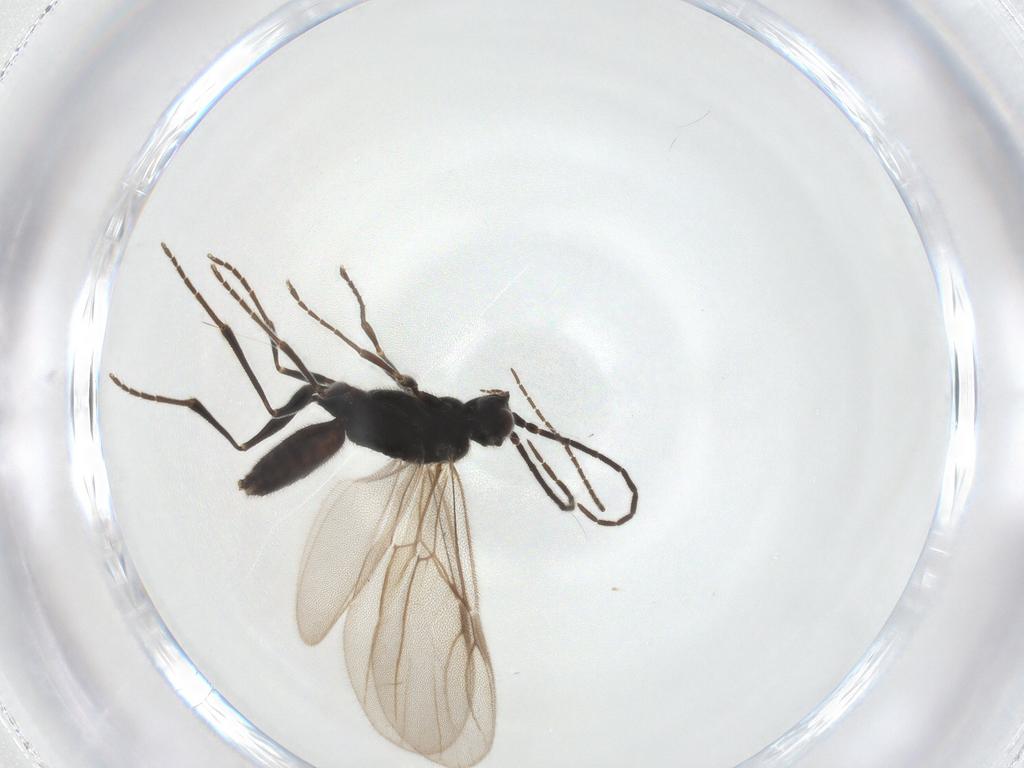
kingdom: Animalia
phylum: Arthropoda
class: Insecta
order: Hymenoptera
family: Dryinidae
